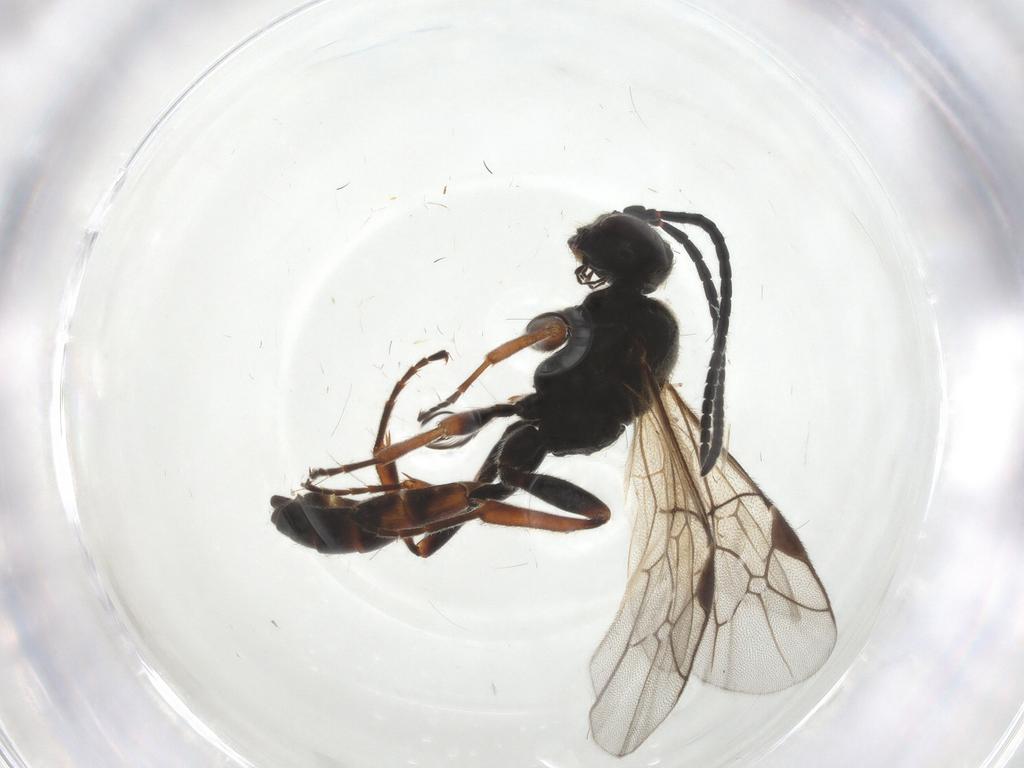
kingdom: Animalia
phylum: Arthropoda
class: Insecta
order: Hymenoptera
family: Ichneumonidae
